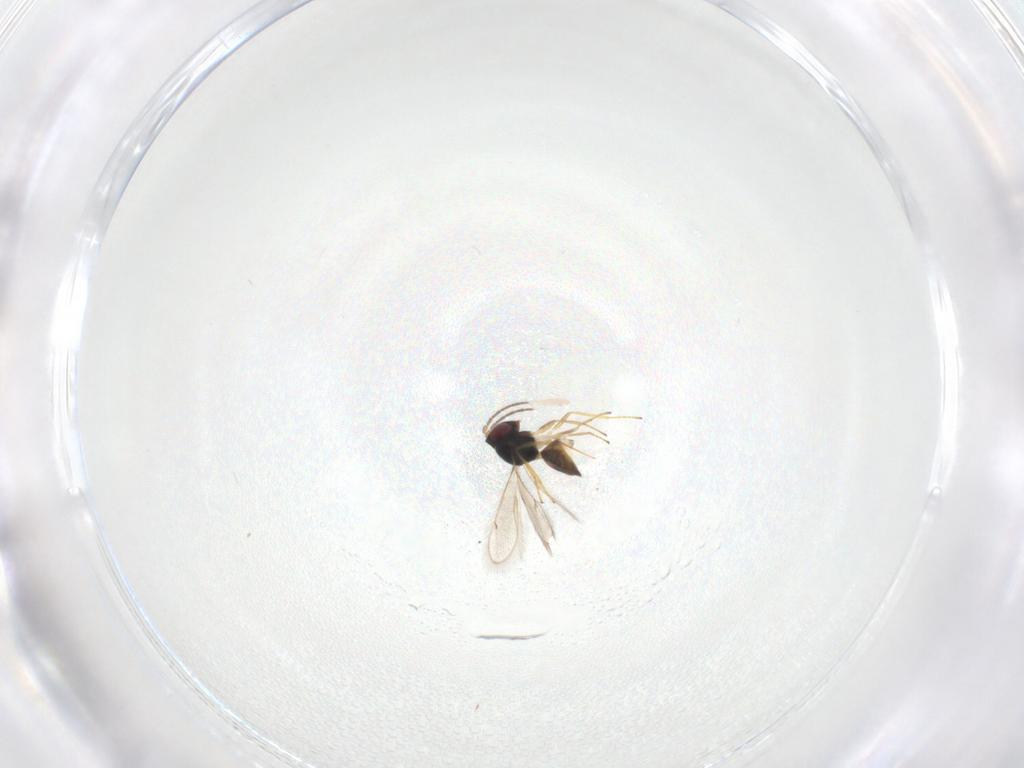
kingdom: Animalia
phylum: Arthropoda
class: Insecta
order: Hymenoptera
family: Eulophidae
